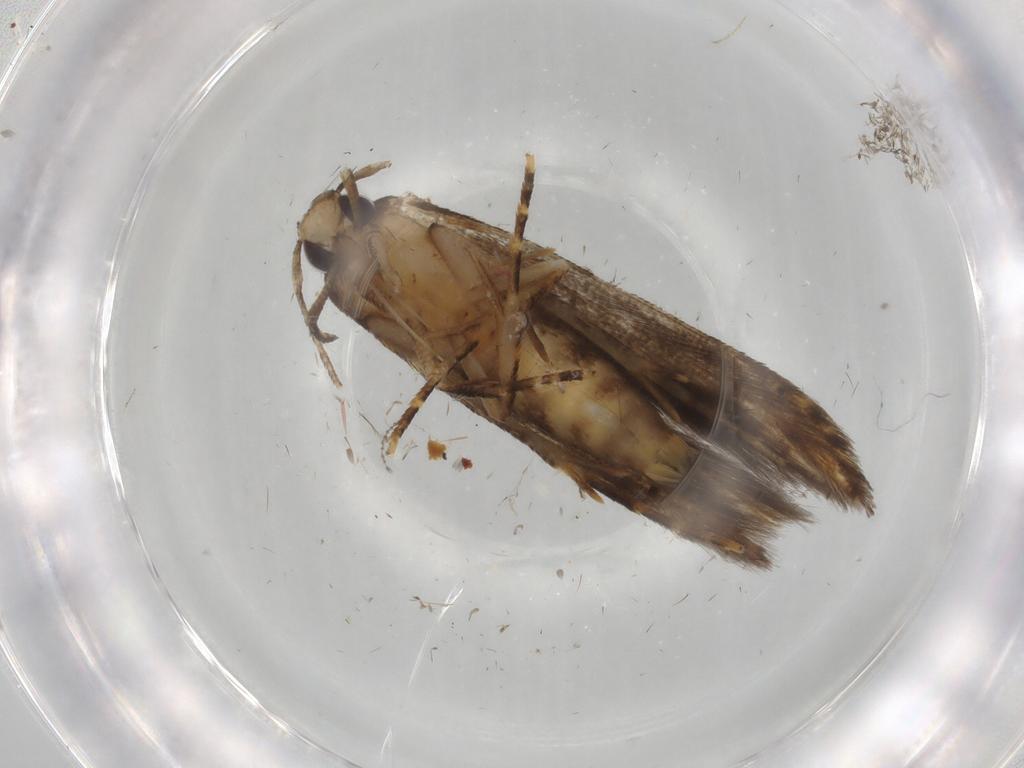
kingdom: Animalia
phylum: Arthropoda
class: Insecta
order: Lepidoptera
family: Cosmopterigidae
